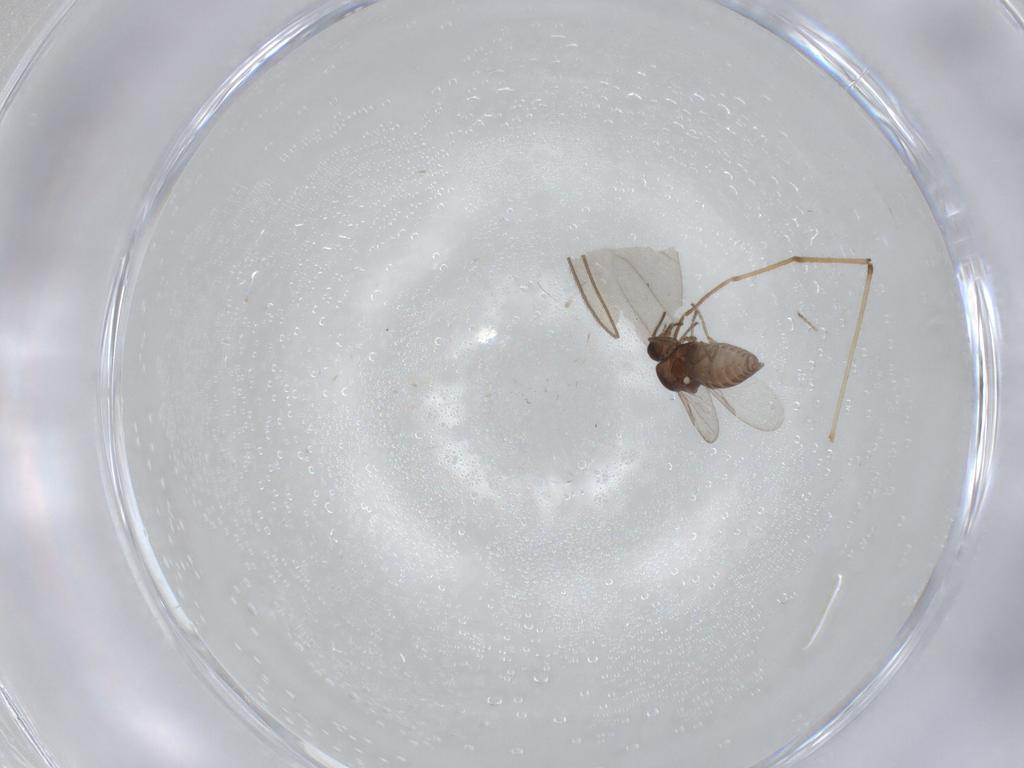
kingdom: Animalia
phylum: Arthropoda
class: Insecta
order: Diptera
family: Ceratopogonidae
